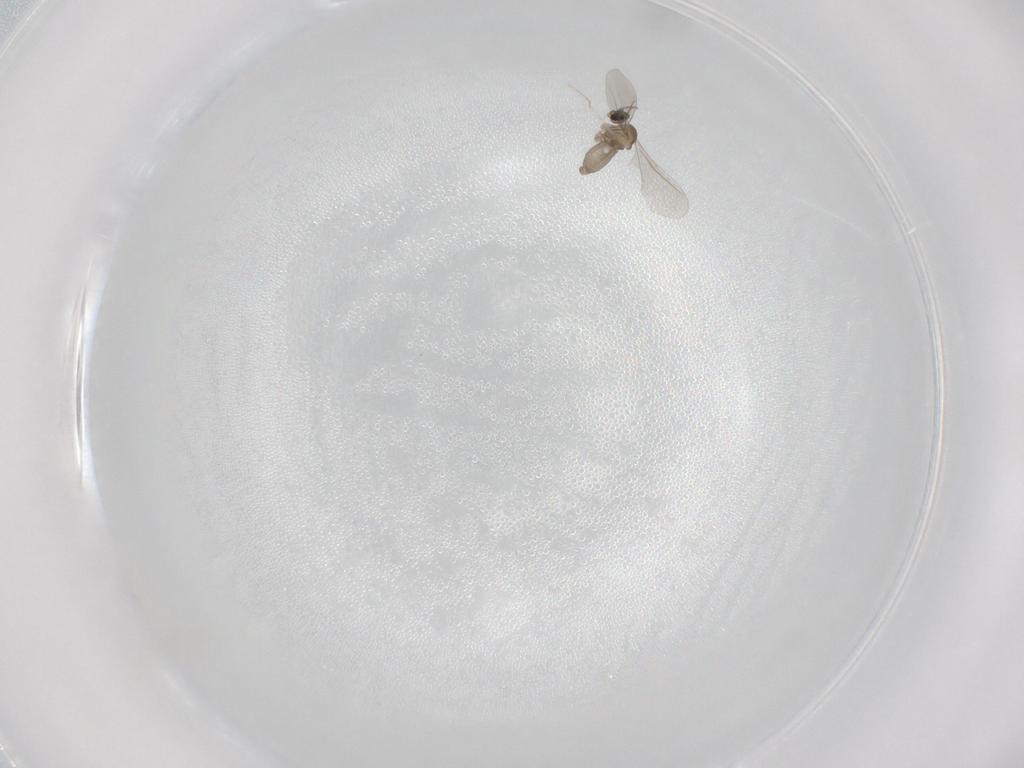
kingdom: Animalia
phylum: Arthropoda
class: Insecta
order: Diptera
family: Cecidomyiidae
